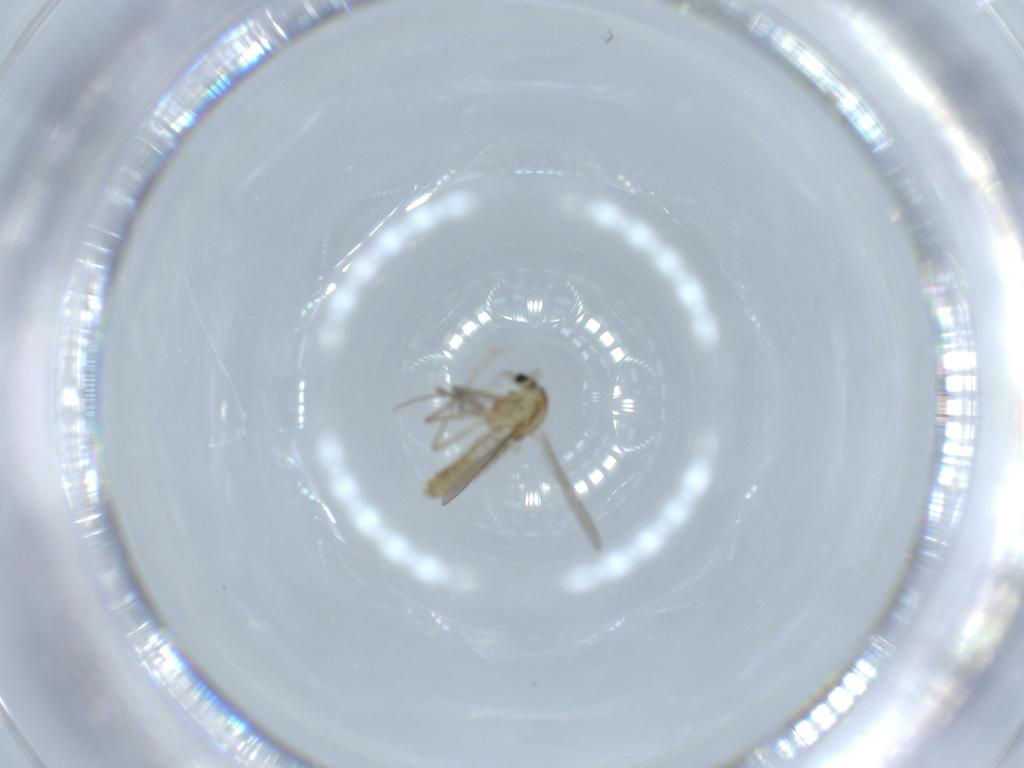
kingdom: Animalia
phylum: Arthropoda
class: Insecta
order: Diptera
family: Chironomidae
